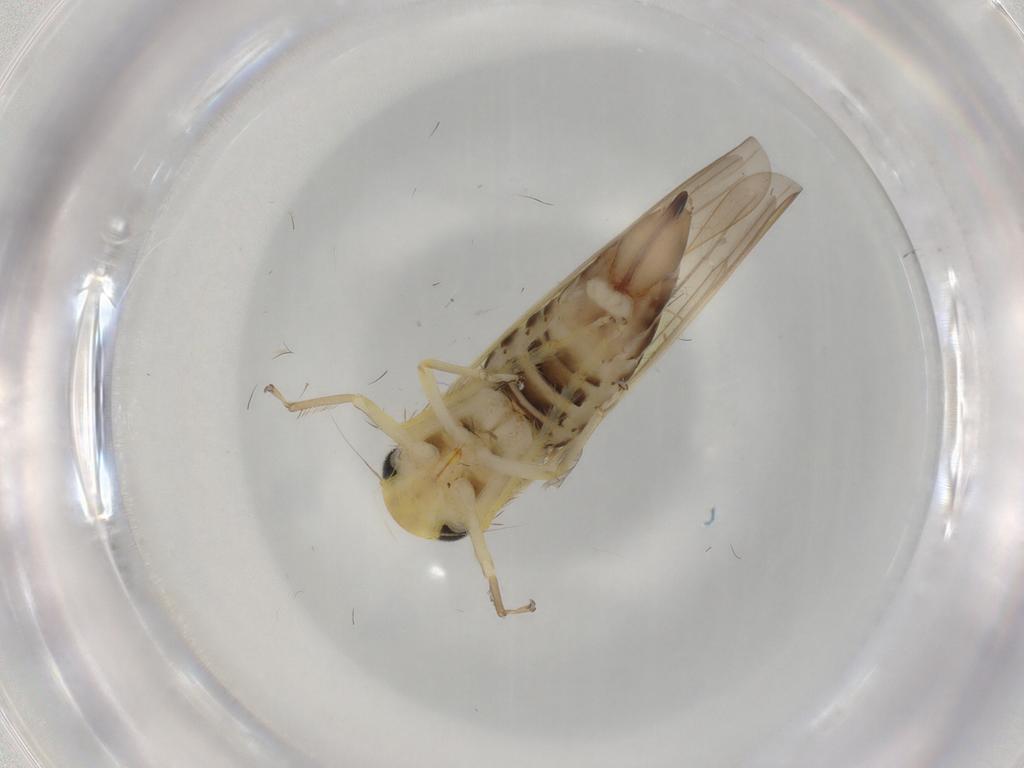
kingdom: Animalia
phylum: Arthropoda
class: Insecta
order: Hemiptera
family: Cicadellidae
